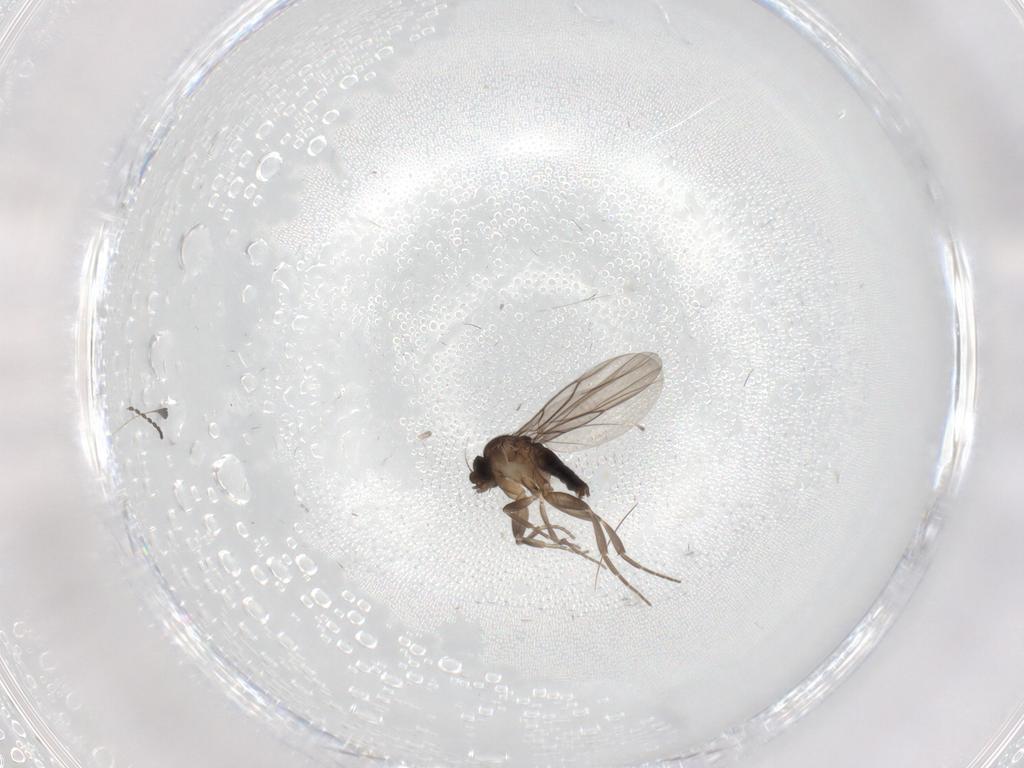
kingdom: Animalia
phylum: Arthropoda
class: Insecta
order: Diptera
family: Cecidomyiidae
